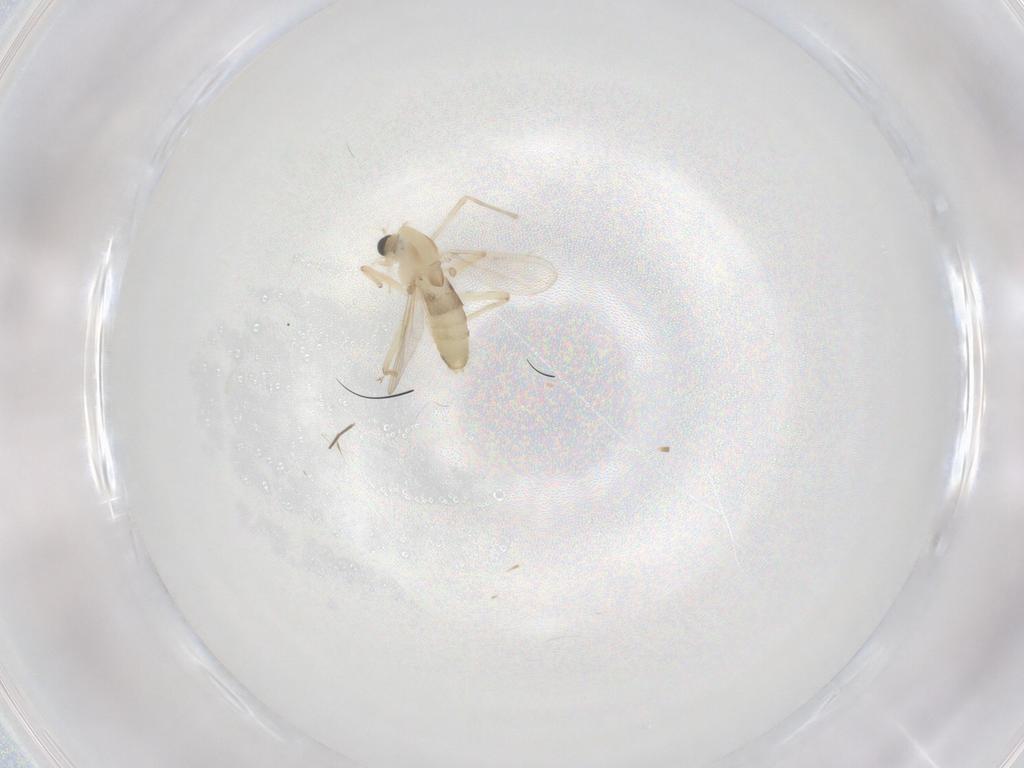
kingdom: Animalia
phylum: Arthropoda
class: Insecta
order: Diptera
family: Chironomidae
